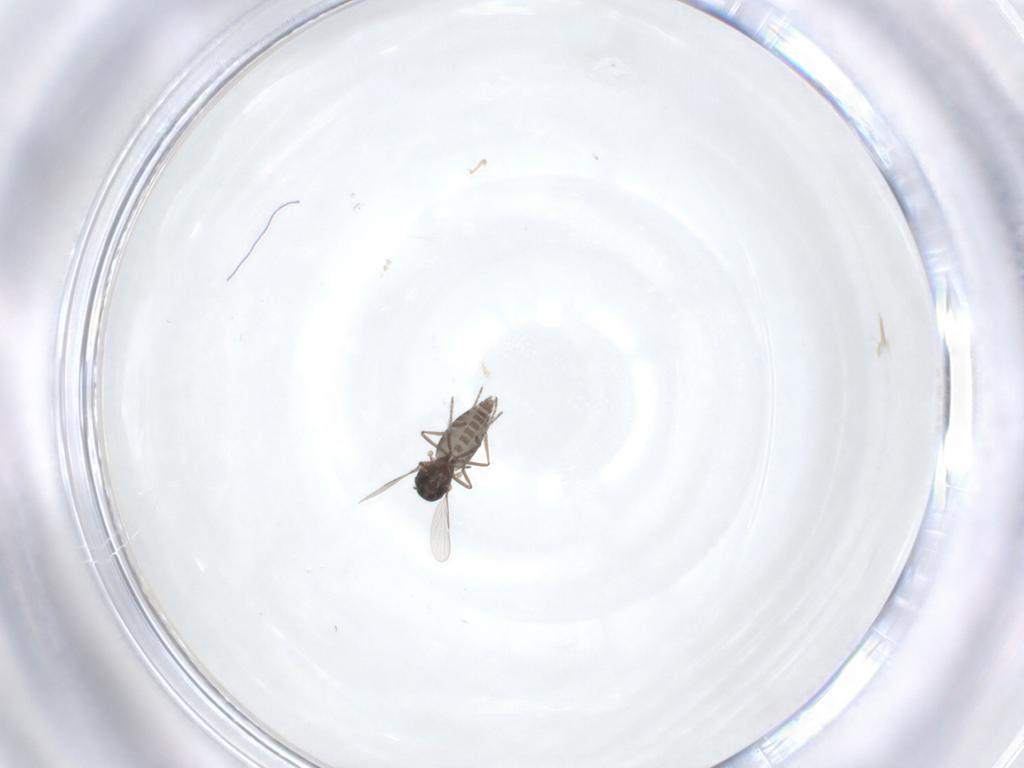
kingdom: Animalia
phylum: Arthropoda
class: Insecta
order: Diptera
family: Ceratopogonidae
